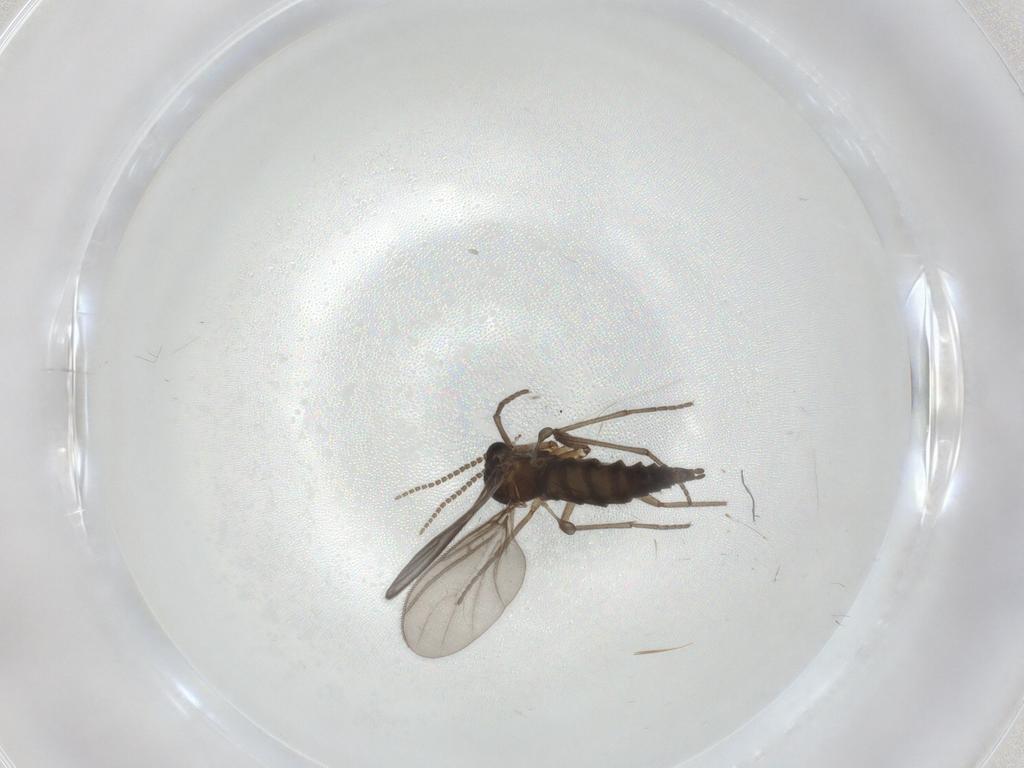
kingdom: Animalia
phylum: Arthropoda
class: Insecta
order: Diptera
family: Sciaridae
